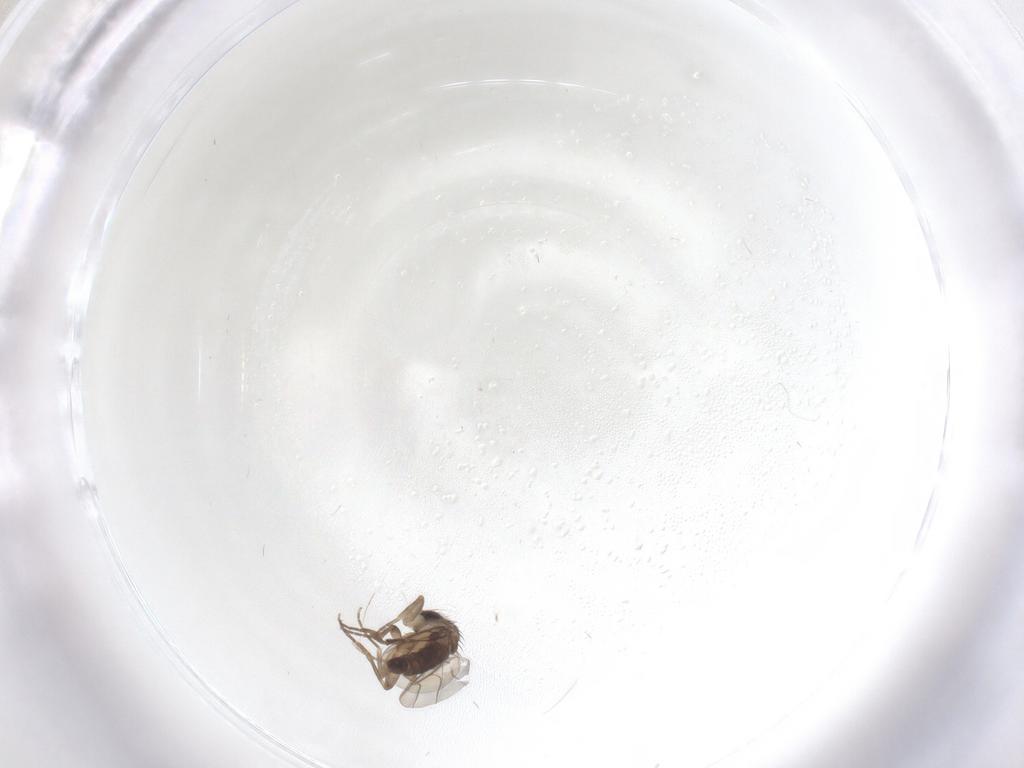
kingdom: Animalia
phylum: Arthropoda
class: Insecta
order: Diptera
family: Phoridae
